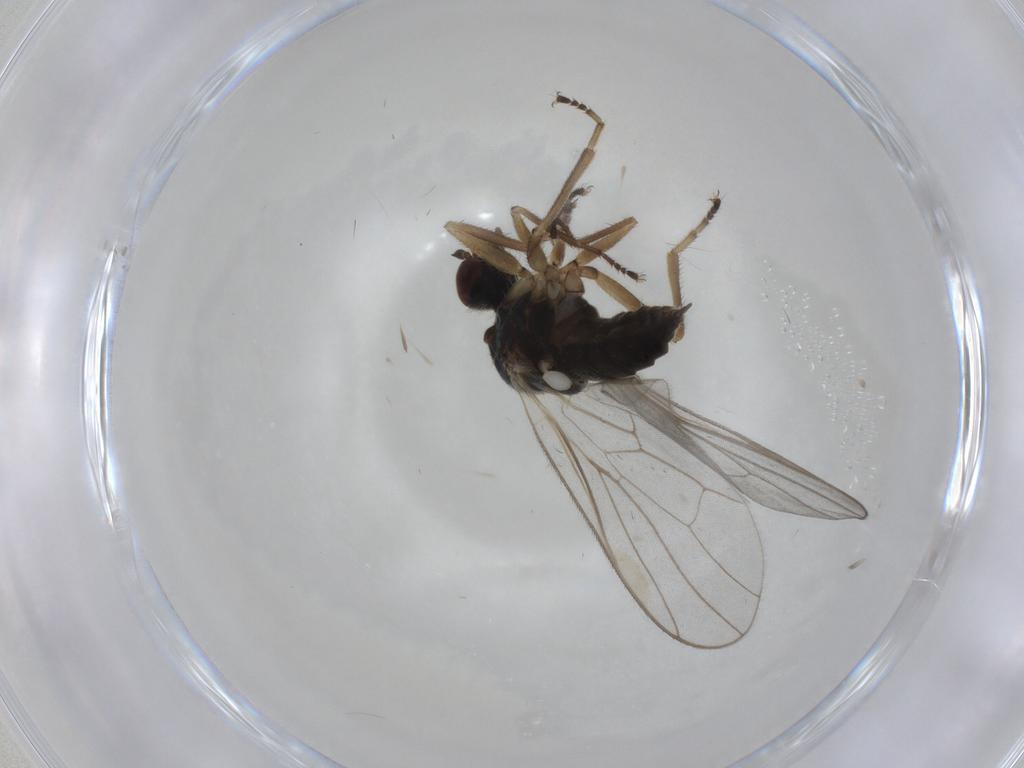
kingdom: Animalia
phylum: Arthropoda
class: Insecta
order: Diptera
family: Hybotidae
